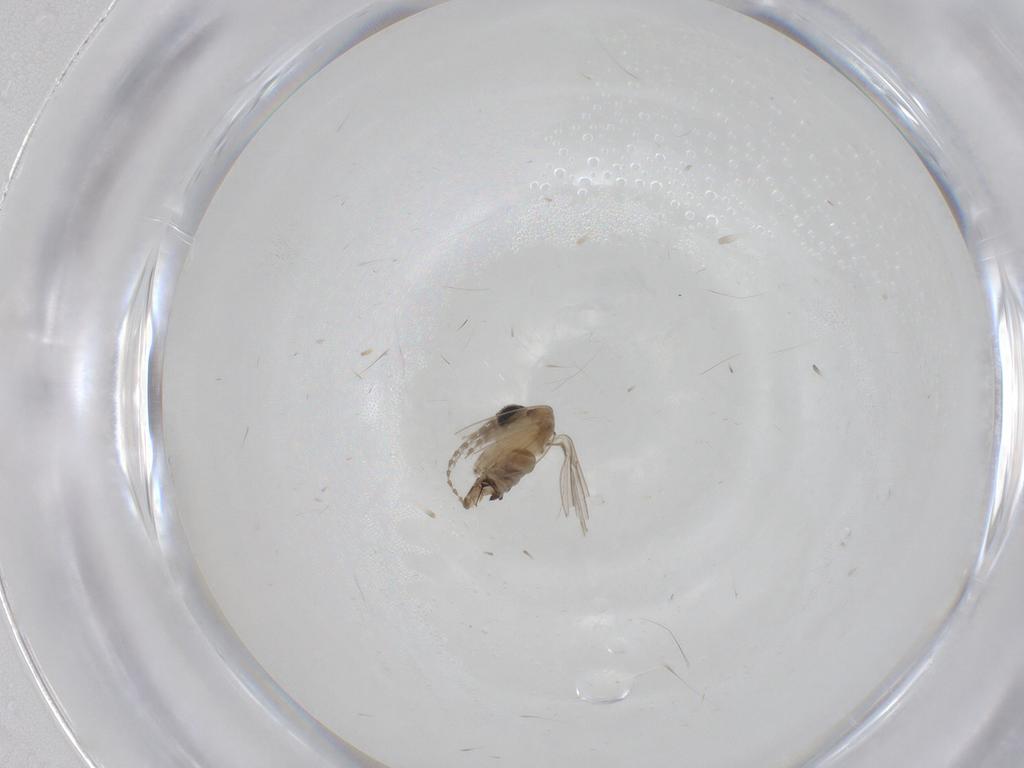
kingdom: Animalia
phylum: Arthropoda
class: Insecta
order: Diptera
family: Psychodidae
